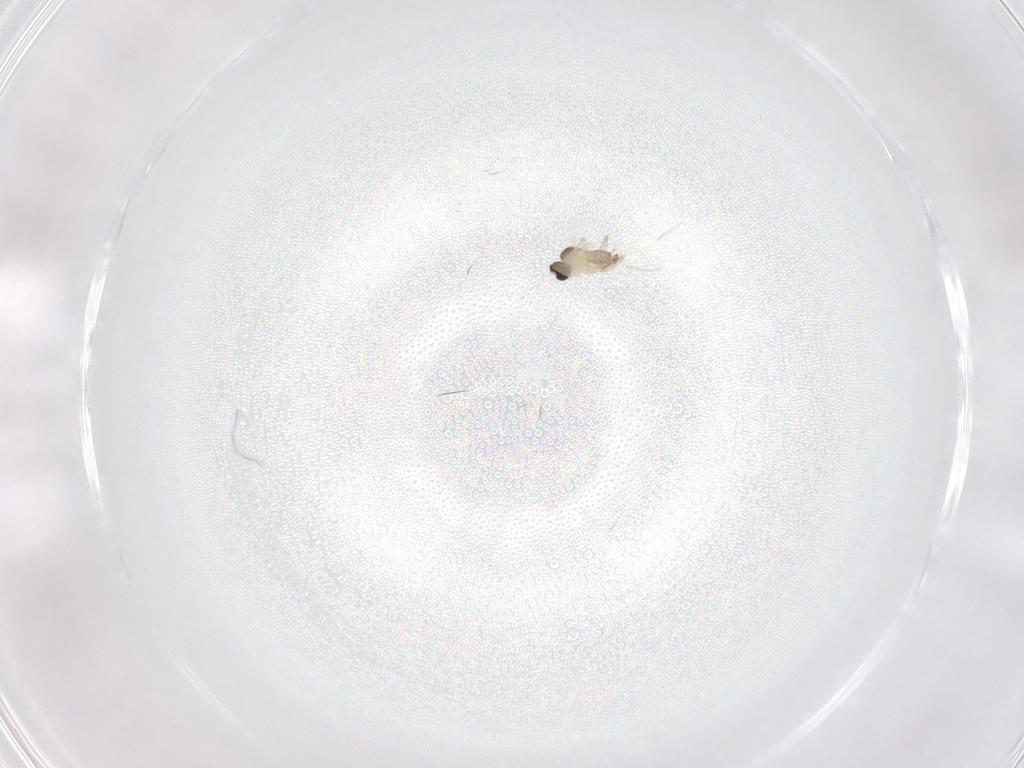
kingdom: Animalia
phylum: Arthropoda
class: Insecta
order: Diptera
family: Cecidomyiidae
